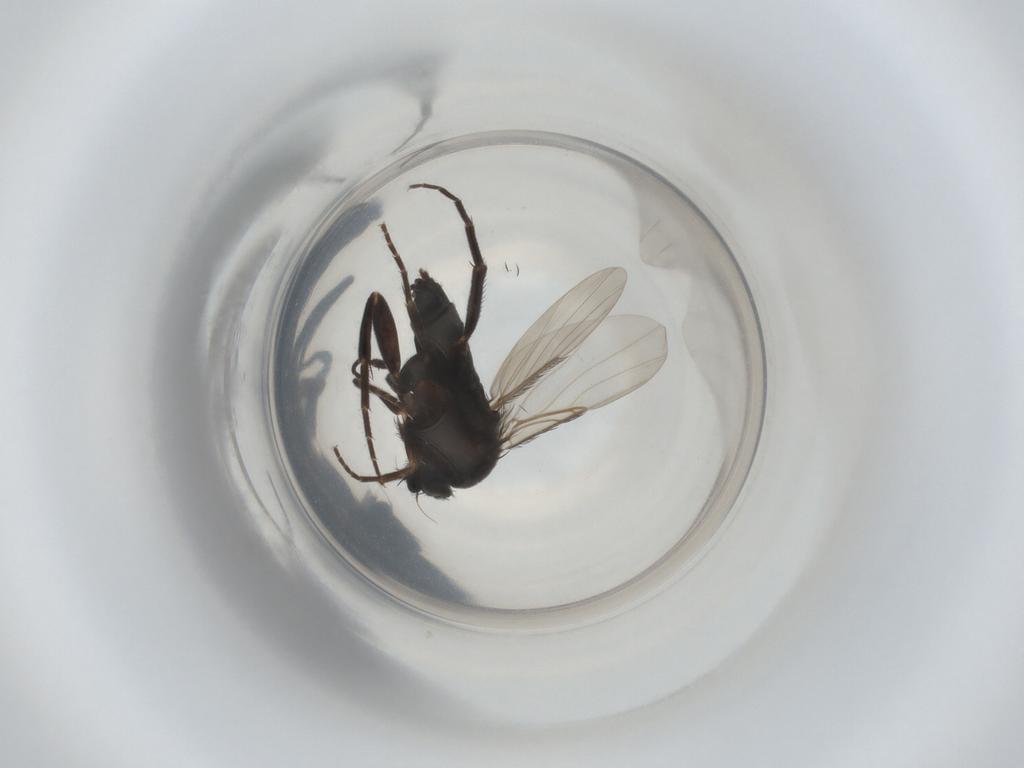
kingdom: Animalia
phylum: Arthropoda
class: Insecta
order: Diptera
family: Phoridae
